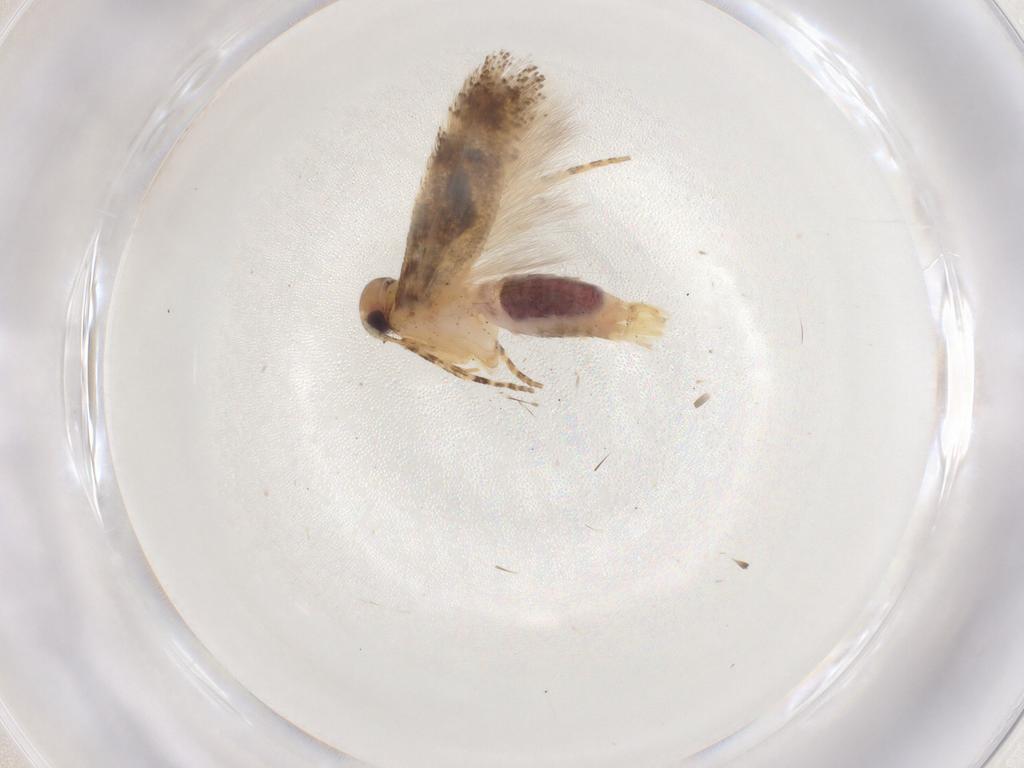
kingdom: Animalia
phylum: Arthropoda
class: Insecta
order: Lepidoptera
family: Gelechiidae
